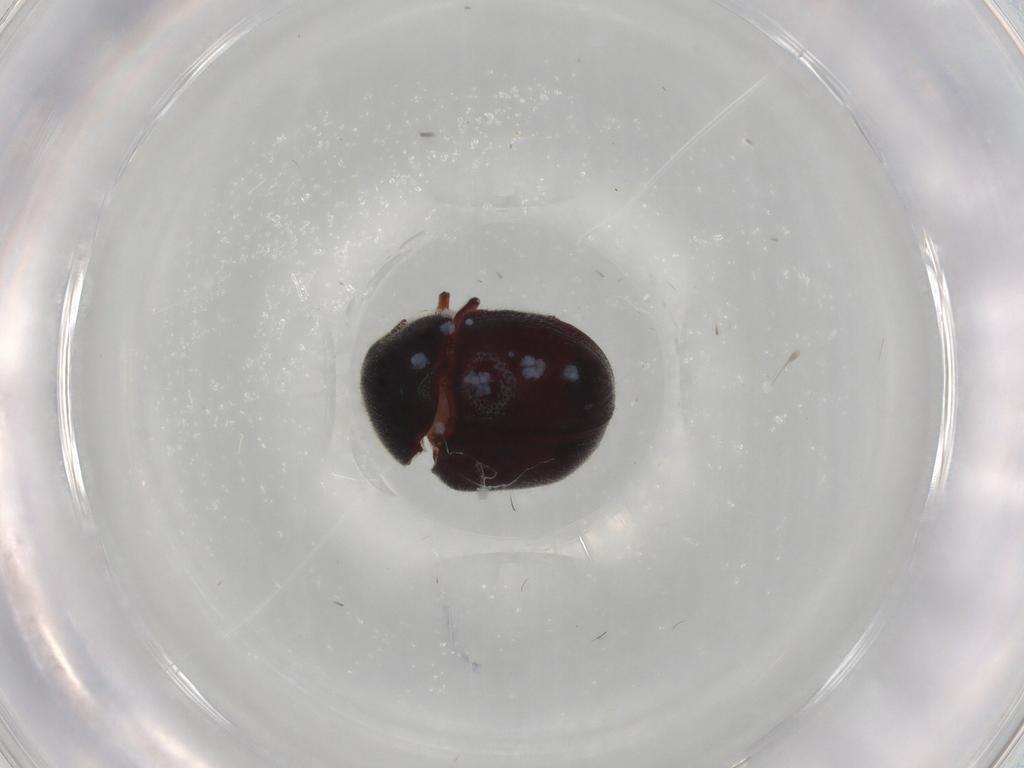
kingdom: Animalia
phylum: Arthropoda
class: Insecta
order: Coleoptera
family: Ptinidae
